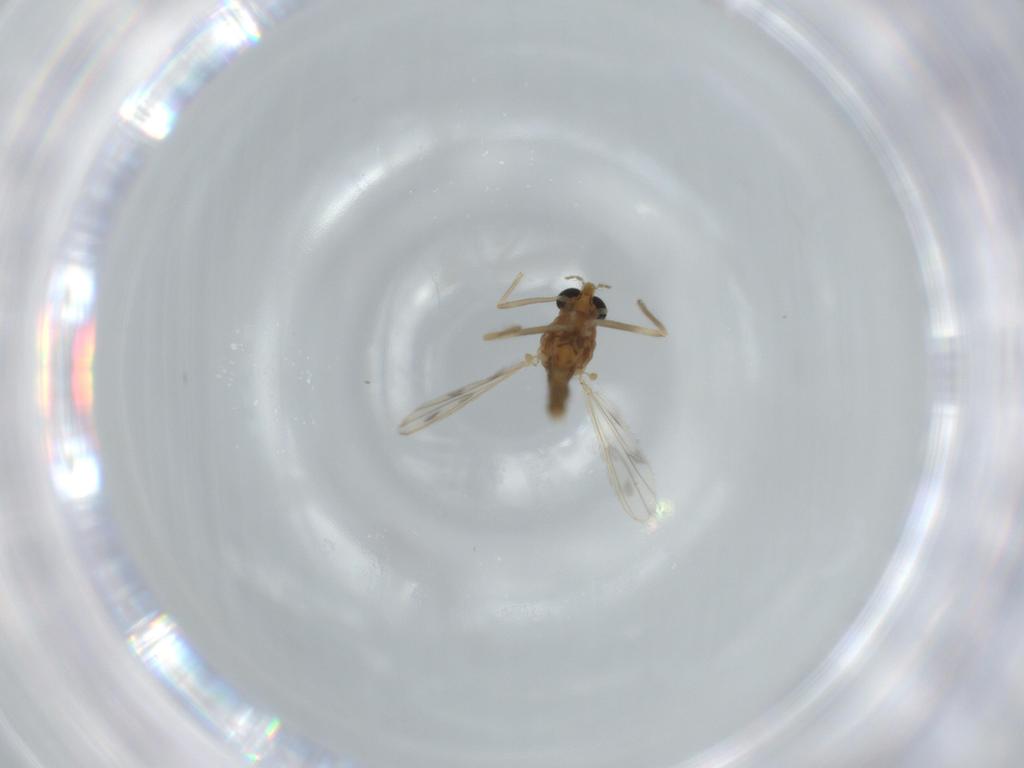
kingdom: Animalia
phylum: Arthropoda
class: Insecta
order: Diptera
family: Chironomidae
